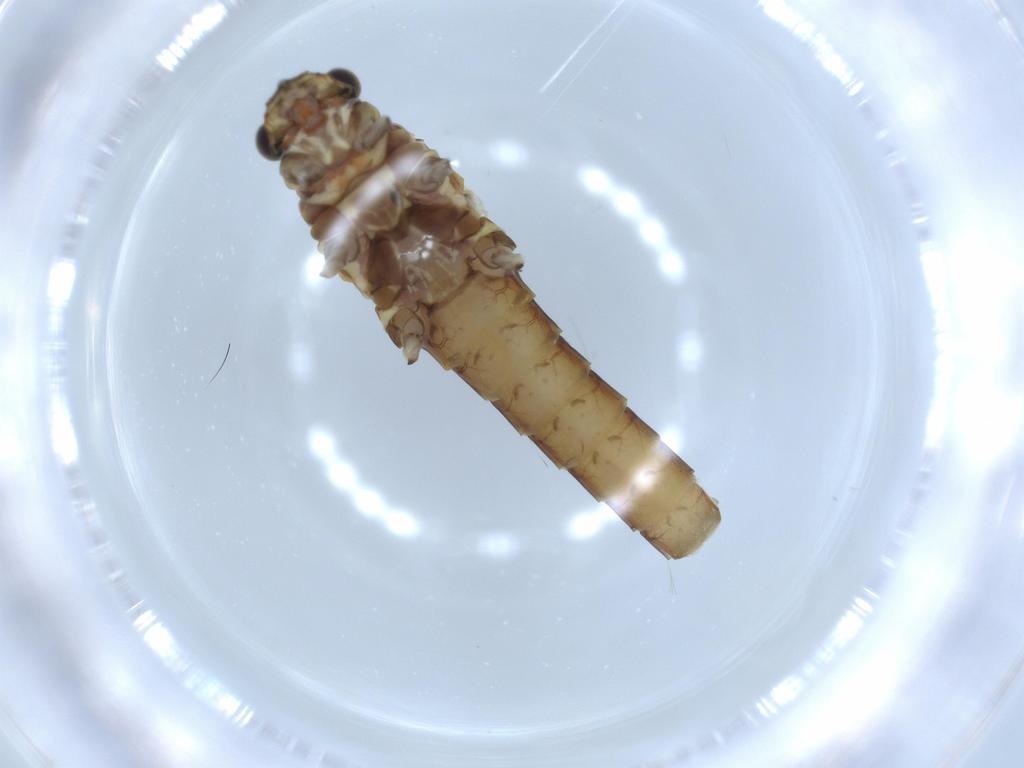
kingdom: Animalia
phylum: Arthropoda
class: Insecta
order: Ephemeroptera
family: Baetidae
